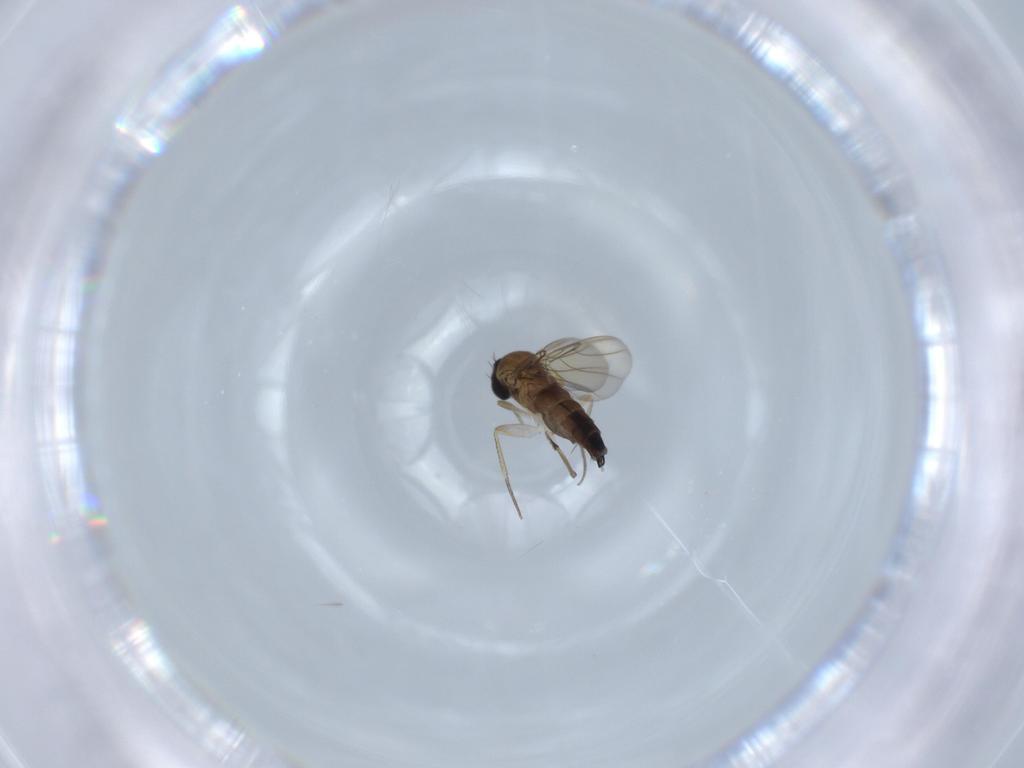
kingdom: Animalia
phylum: Arthropoda
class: Insecta
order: Diptera
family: Phoridae
